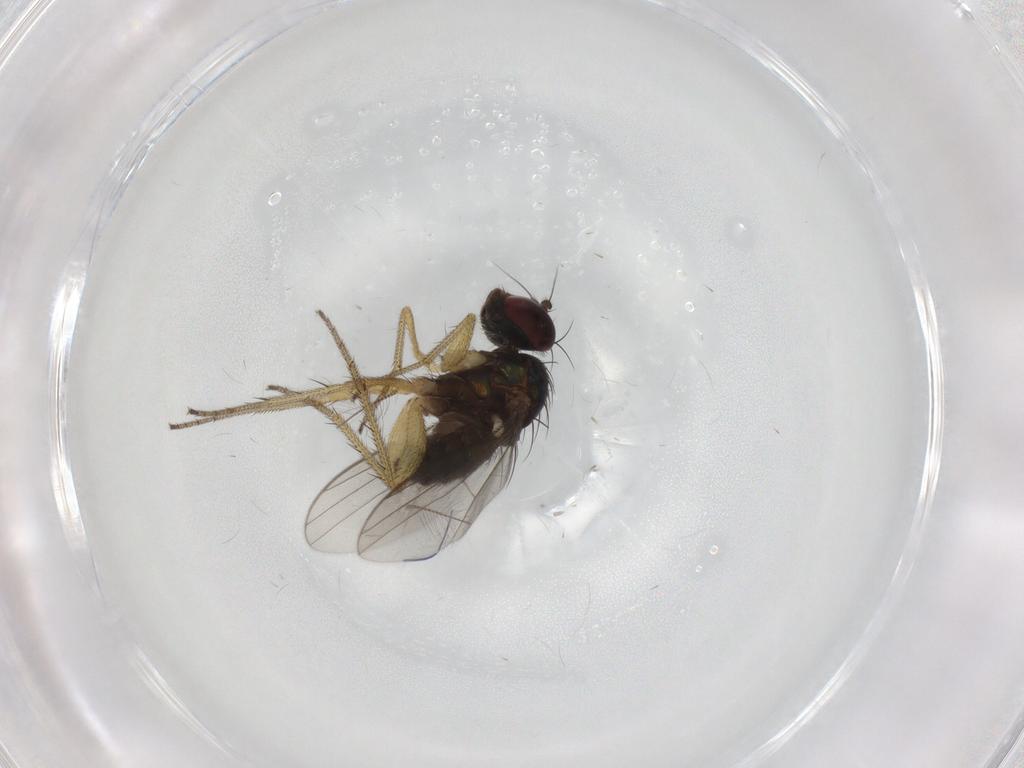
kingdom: Animalia
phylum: Arthropoda
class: Insecta
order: Diptera
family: Dolichopodidae
